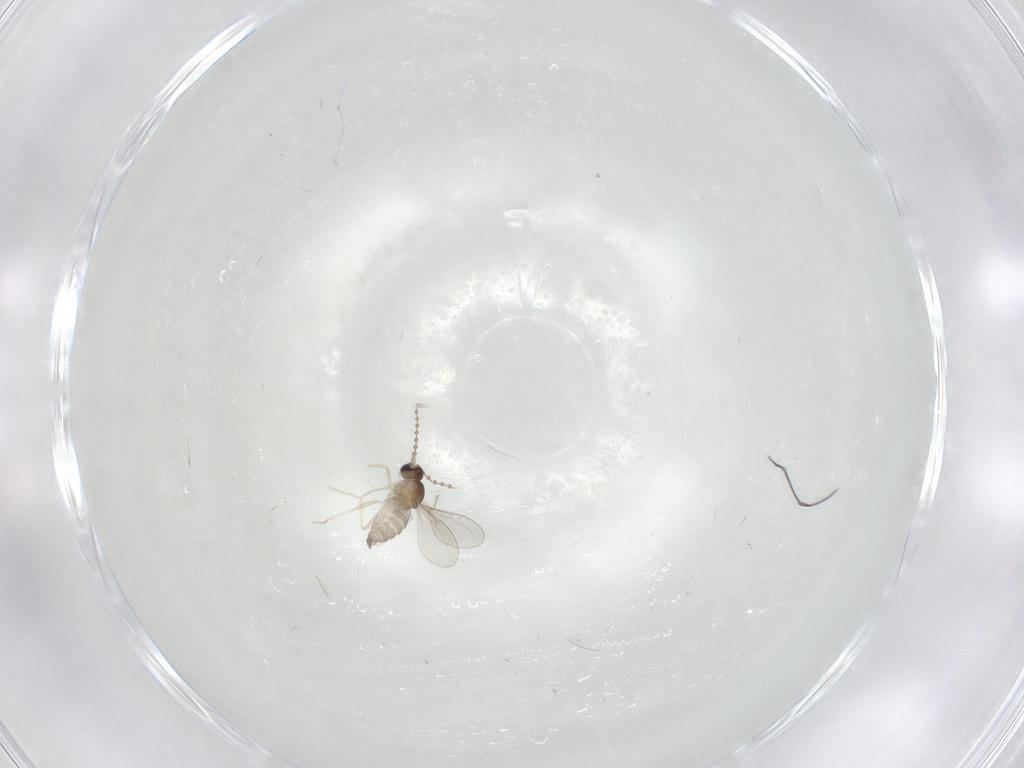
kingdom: Animalia
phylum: Arthropoda
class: Insecta
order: Diptera
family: Cecidomyiidae
